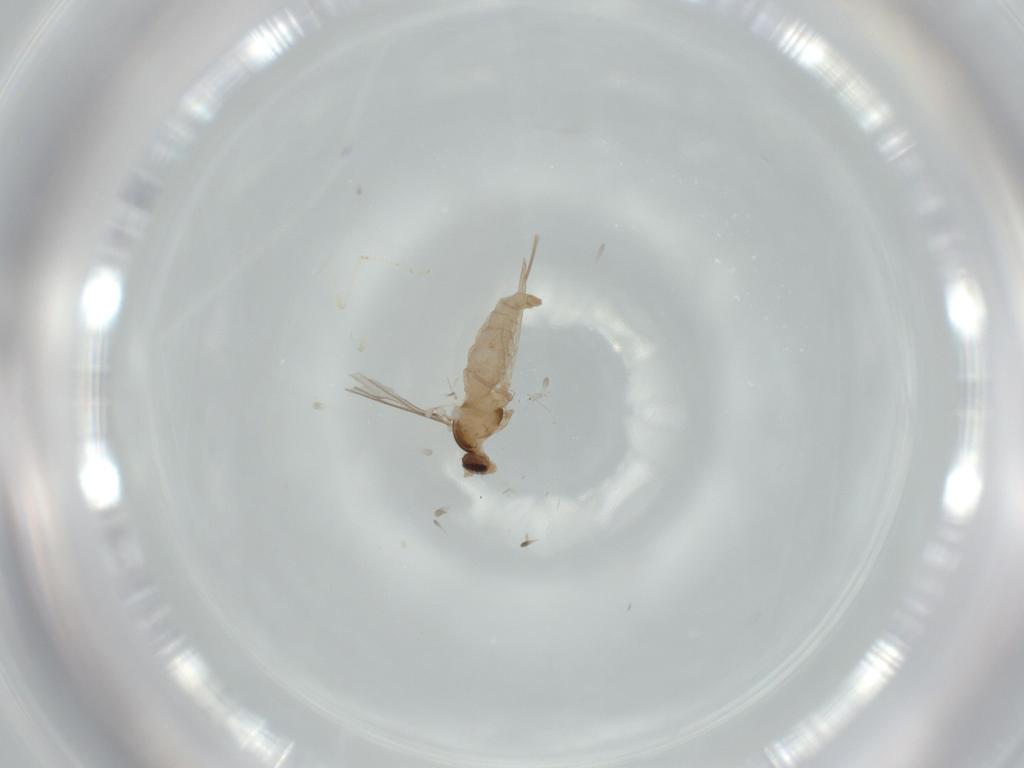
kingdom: Animalia
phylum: Arthropoda
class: Insecta
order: Diptera
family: Cecidomyiidae
